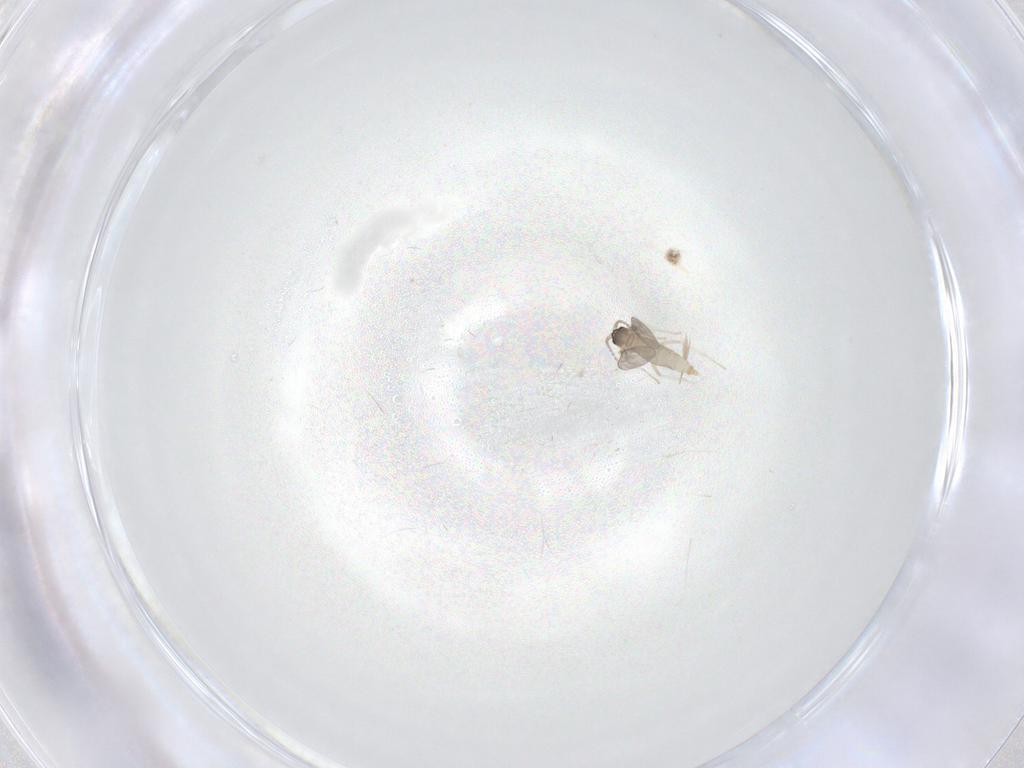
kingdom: Animalia
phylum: Arthropoda
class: Insecta
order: Diptera
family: Cecidomyiidae
